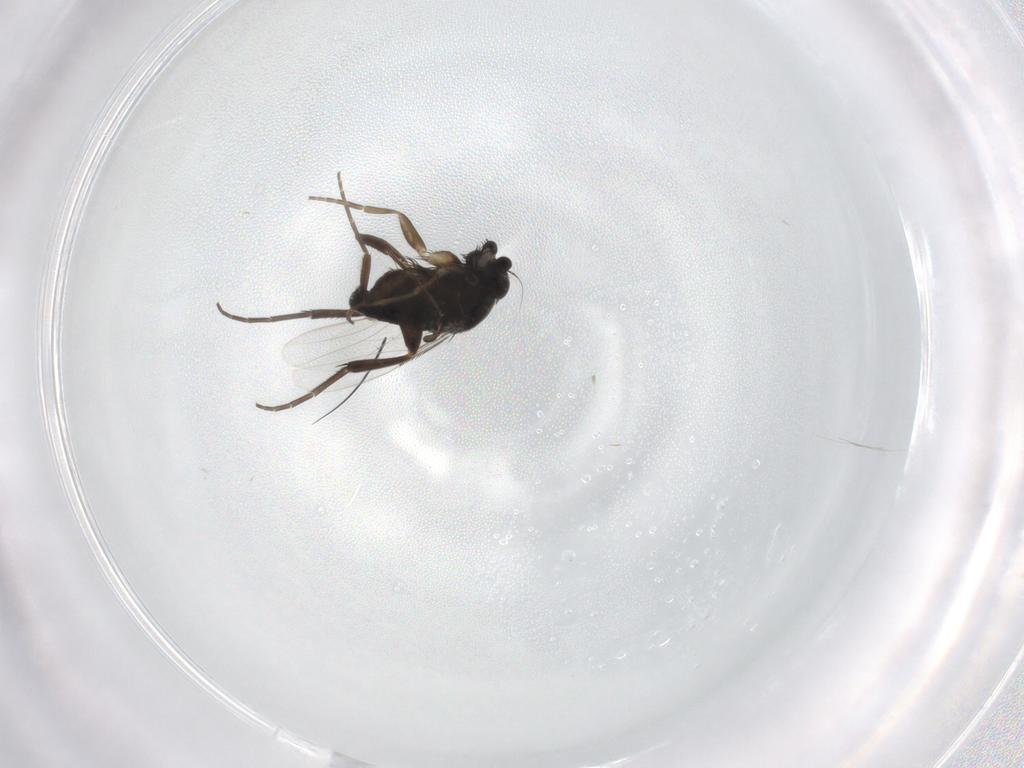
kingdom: Animalia
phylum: Arthropoda
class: Insecta
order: Diptera
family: Phoridae
